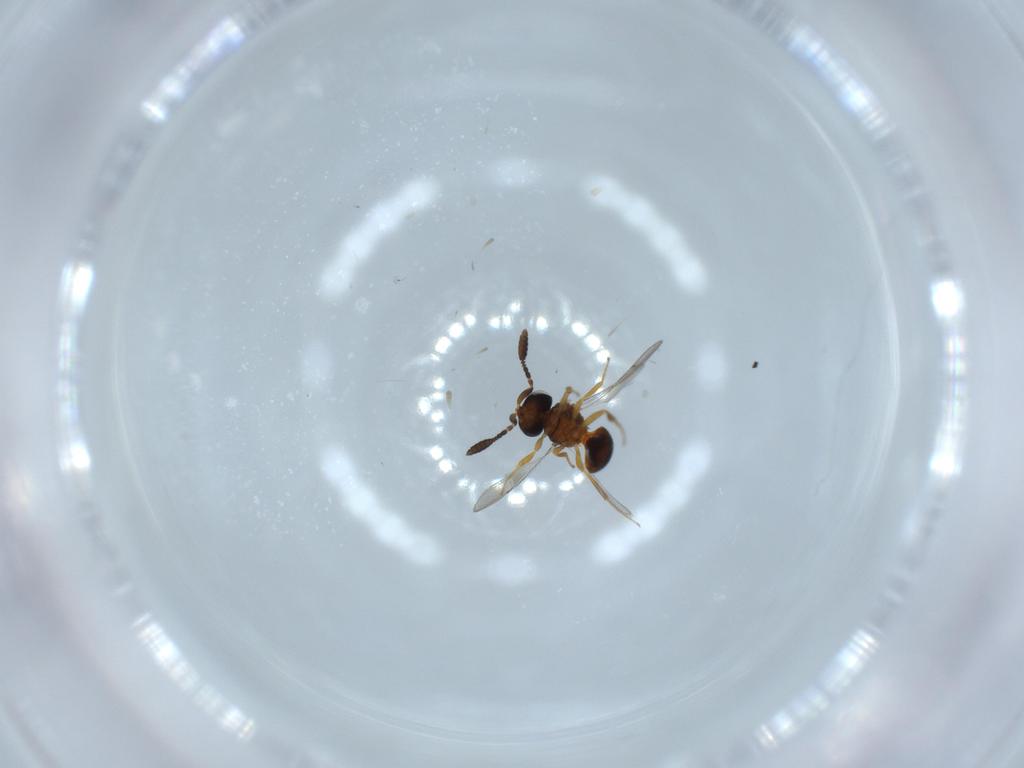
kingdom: Animalia
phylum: Arthropoda
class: Insecta
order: Hymenoptera
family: Scelionidae
